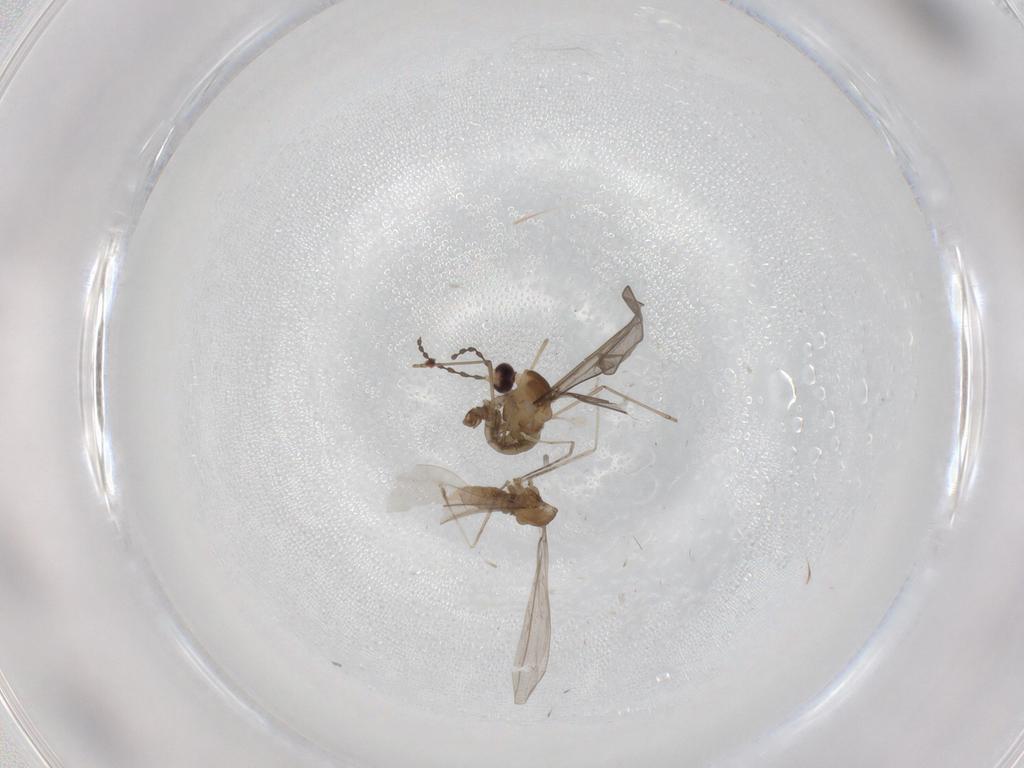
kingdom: Animalia
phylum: Arthropoda
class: Insecta
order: Diptera
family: Cecidomyiidae
